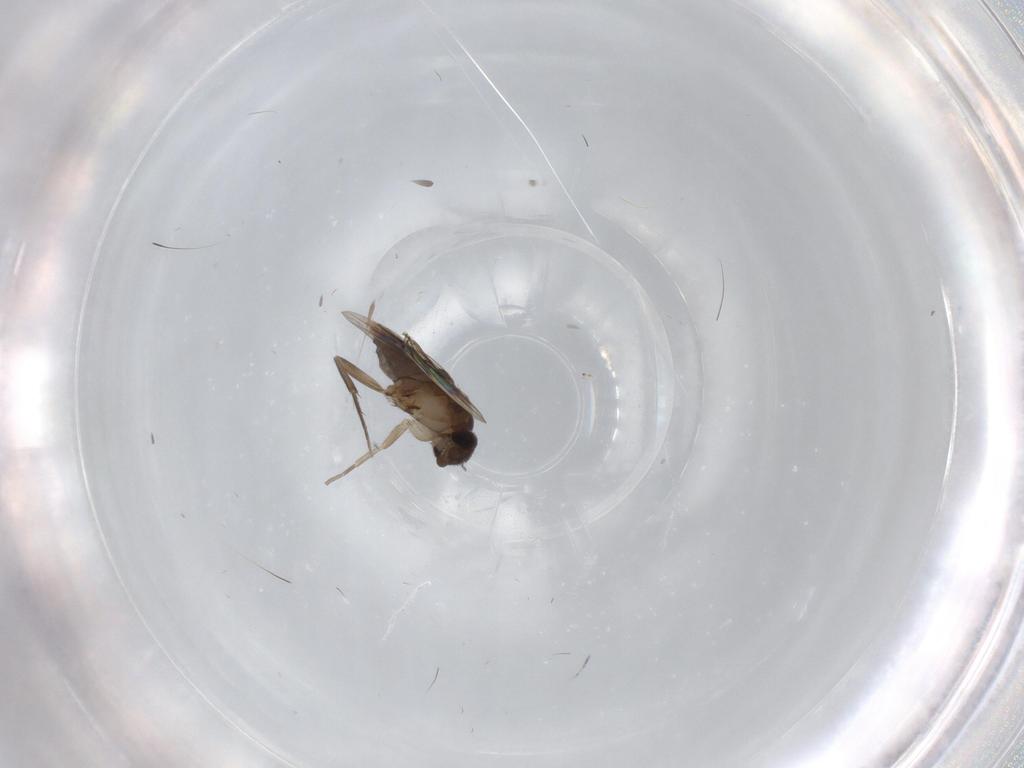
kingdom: Animalia
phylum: Arthropoda
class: Insecta
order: Diptera
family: Phoridae
